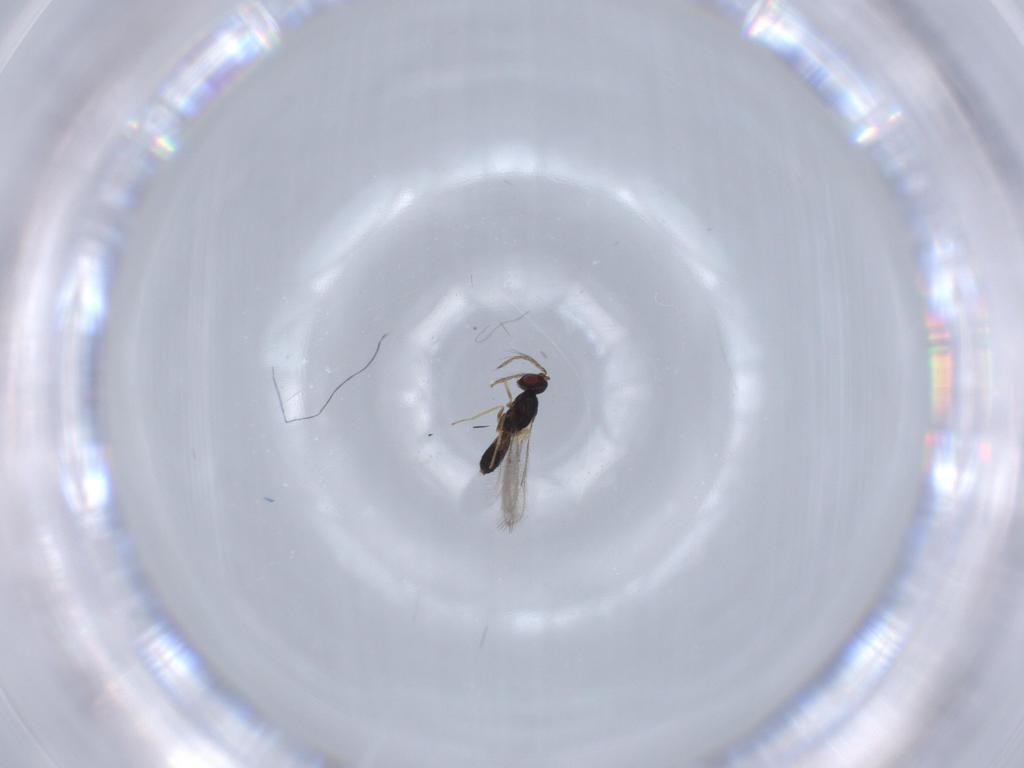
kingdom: Animalia
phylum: Arthropoda
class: Insecta
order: Hymenoptera
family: Eulophidae
